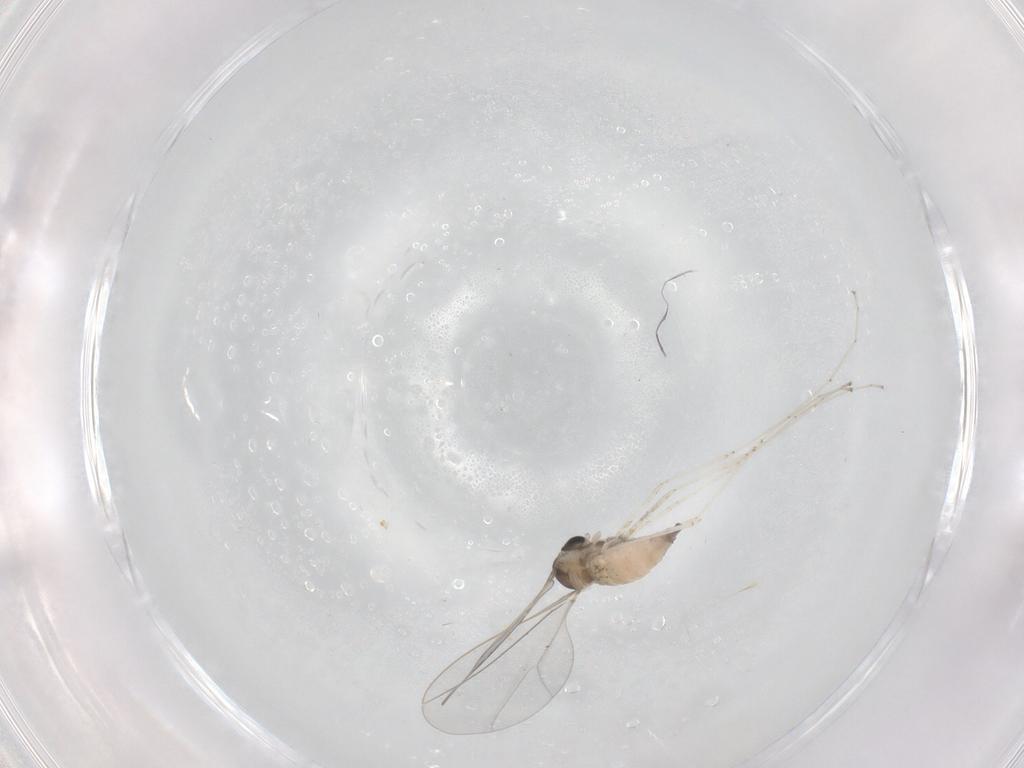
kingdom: Animalia
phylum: Arthropoda
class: Insecta
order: Diptera
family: Cecidomyiidae
